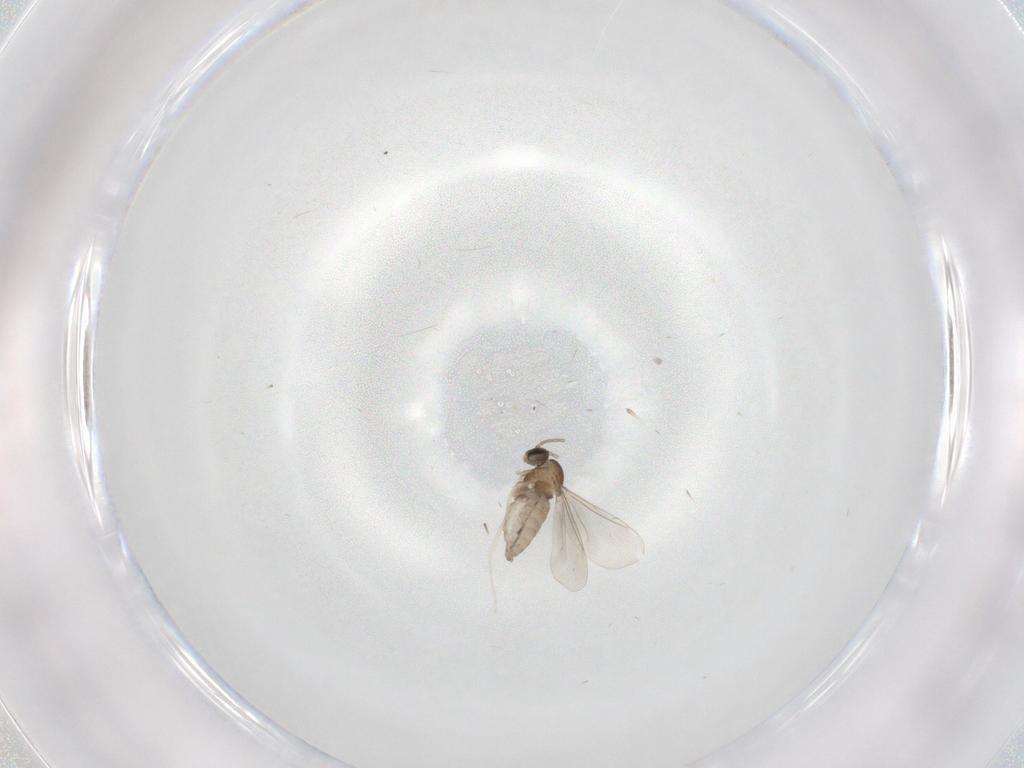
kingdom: Animalia
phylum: Arthropoda
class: Insecta
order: Diptera
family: Cecidomyiidae
